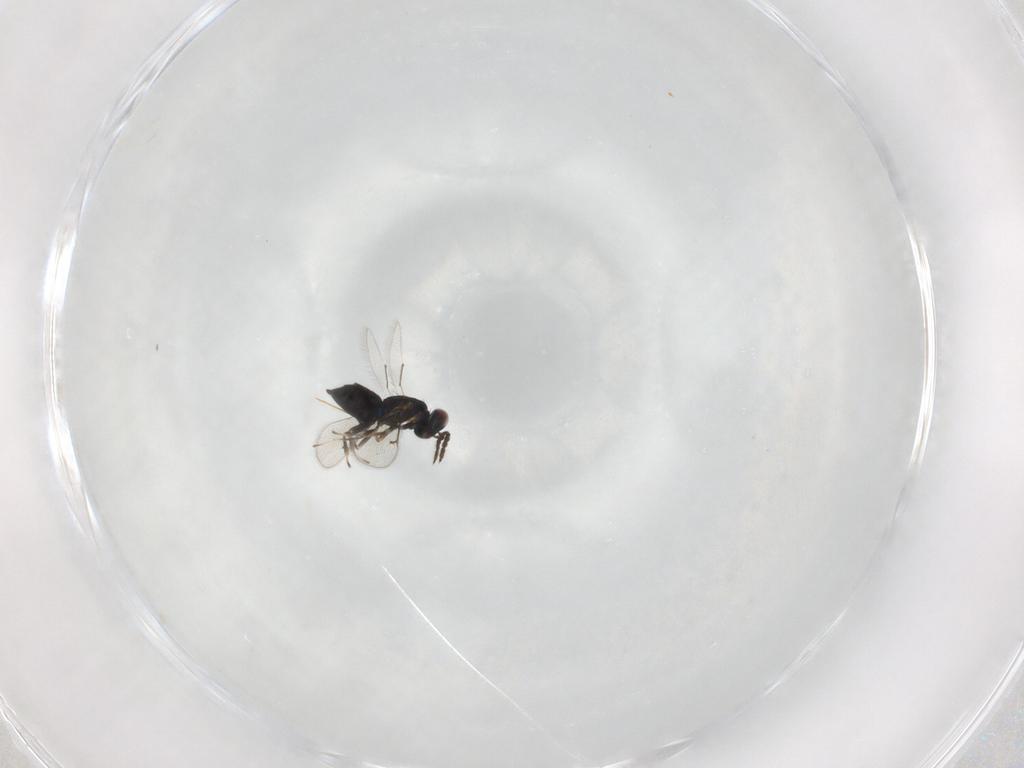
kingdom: Animalia
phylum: Arthropoda
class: Insecta
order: Hymenoptera
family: Eulophidae
